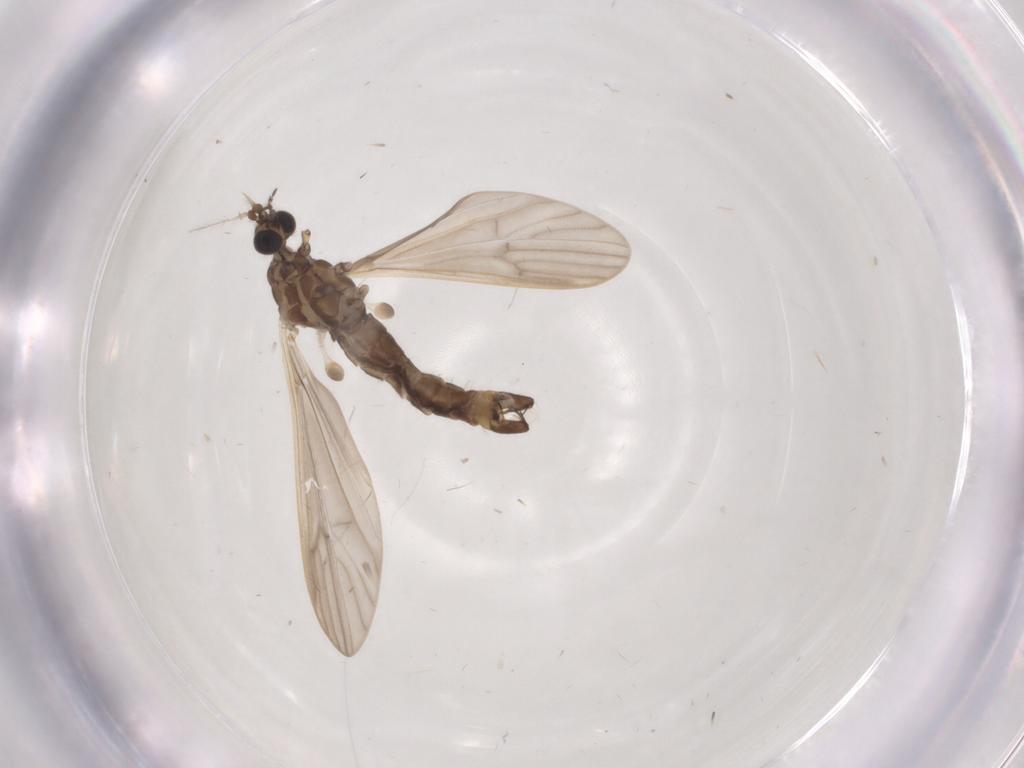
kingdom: Animalia
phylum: Arthropoda
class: Insecta
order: Diptera
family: Limoniidae
